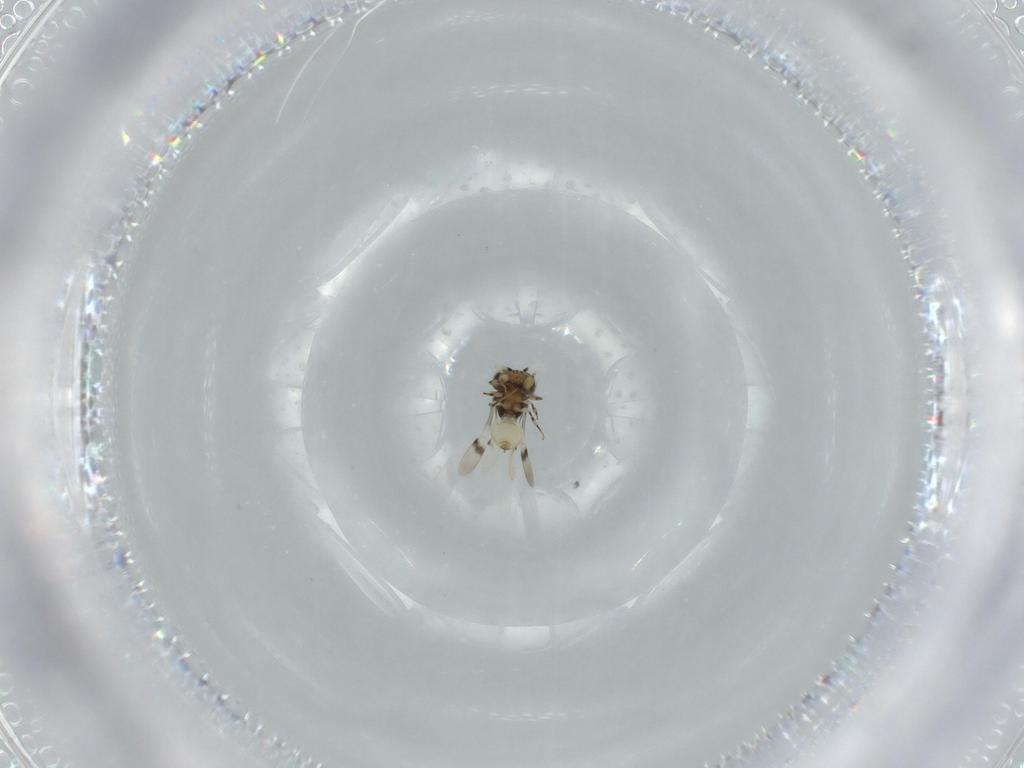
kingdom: Animalia
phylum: Arthropoda
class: Insecta
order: Hymenoptera
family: Scelionidae
